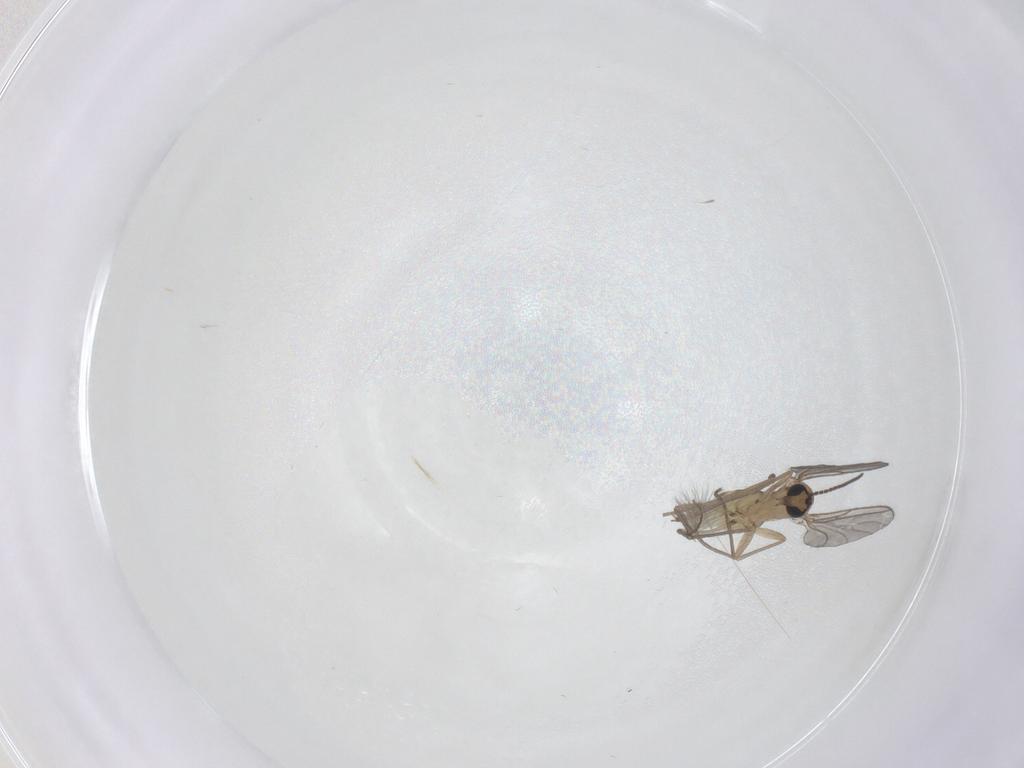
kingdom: Animalia
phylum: Arthropoda
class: Insecta
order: Diptera
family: Sciaridae
